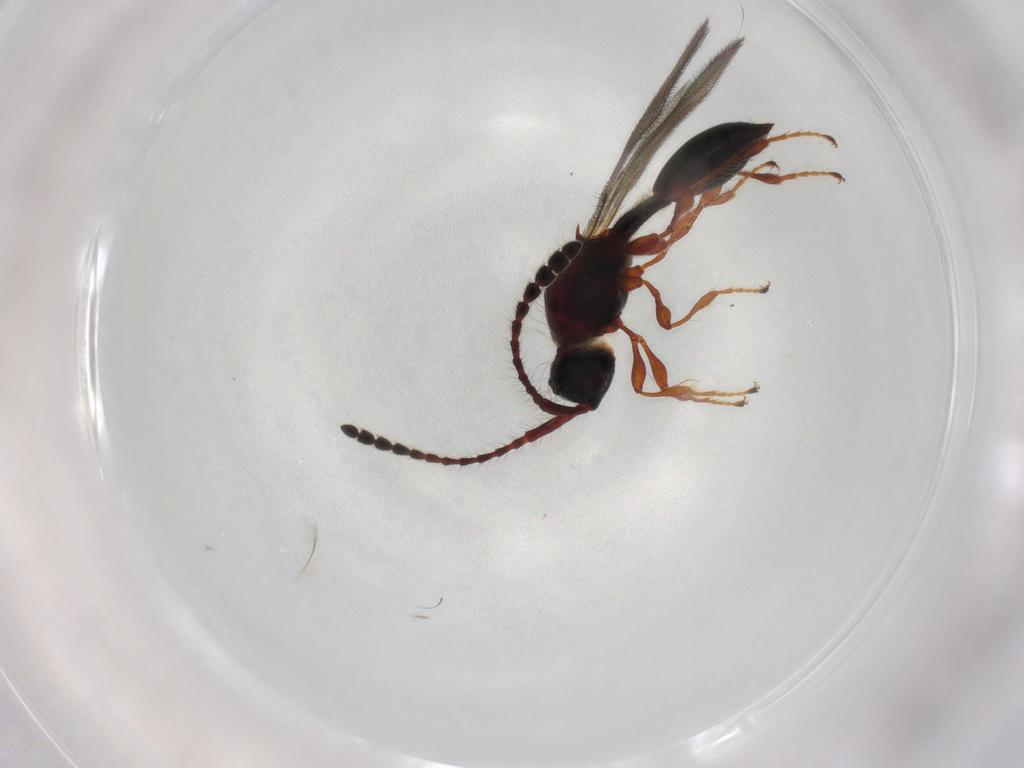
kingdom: Animalia
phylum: Arthropoda
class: Insecta
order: Hymenoptera
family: Diapriidae
